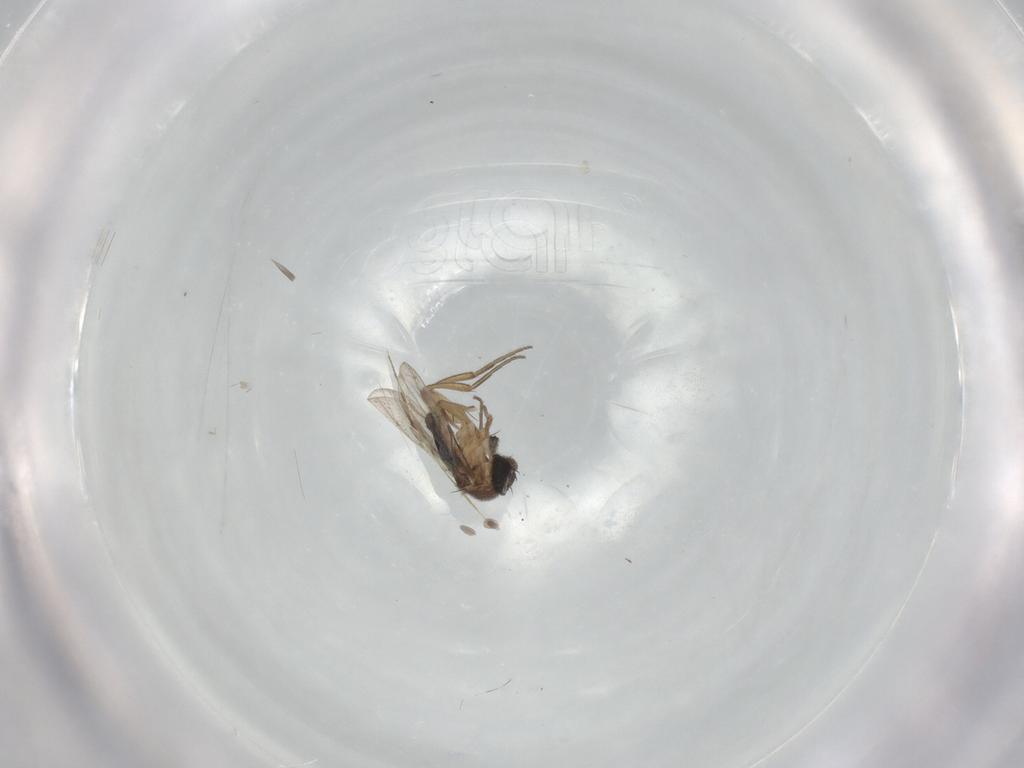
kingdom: Animalia
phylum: Arthropoda
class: Insecta
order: Diptera
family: Phoridae
